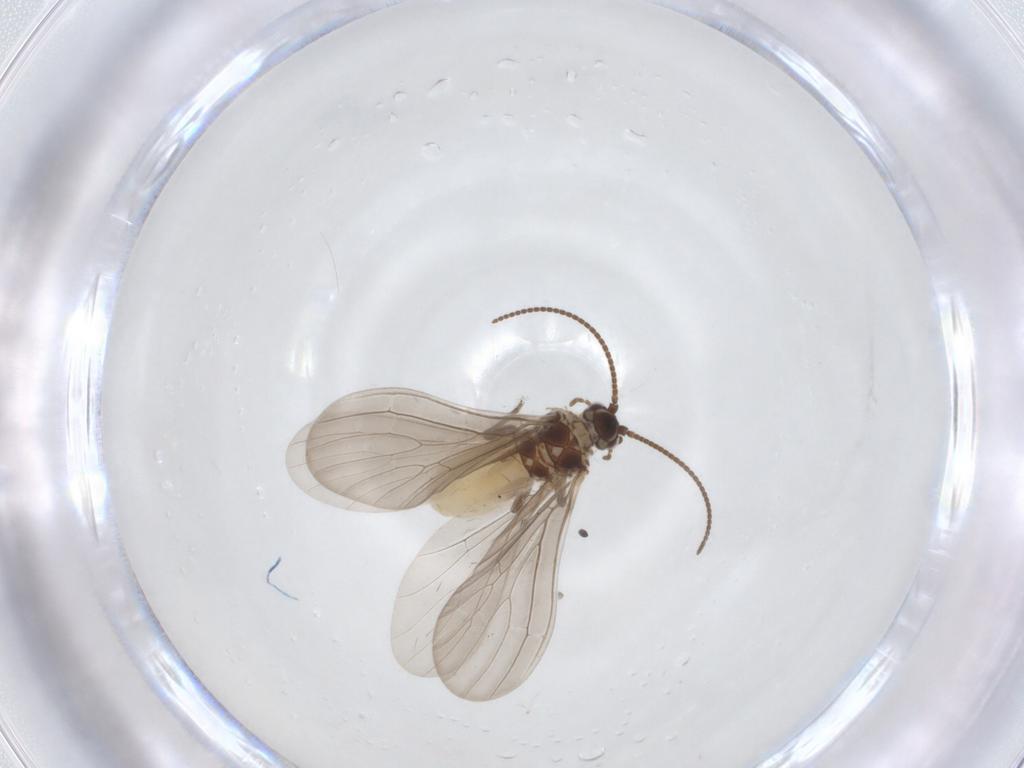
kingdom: Animalia
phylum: Arthropoda
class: Insecta
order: Neuroptera
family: Coniopterygidae
